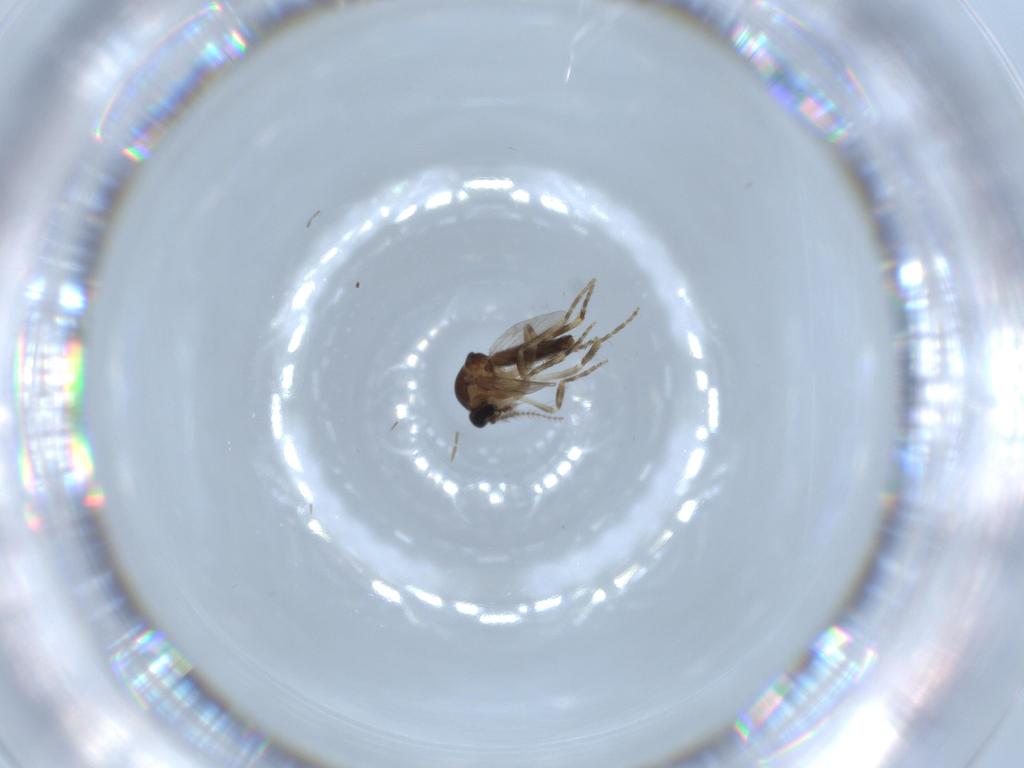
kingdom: Animalia
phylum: Arthropoda
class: Insecta
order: Diptera
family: Ceratopogonidae
